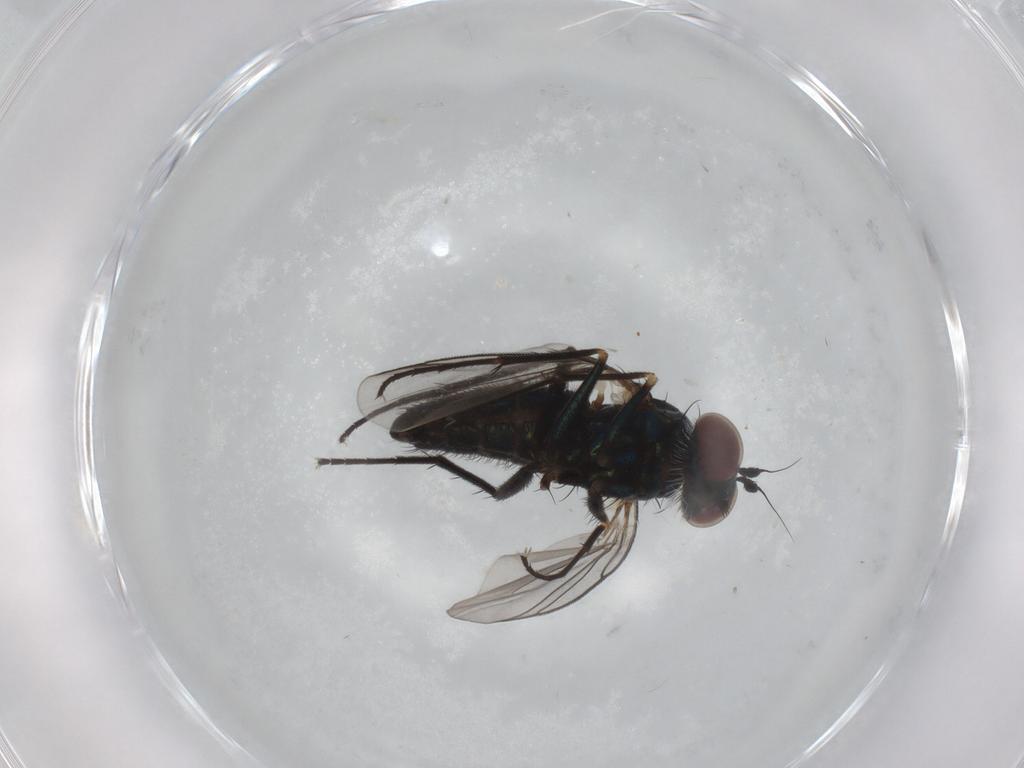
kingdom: Animalia
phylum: Arthropoda
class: Insecta
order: Diptera
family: Dolichopodidae
